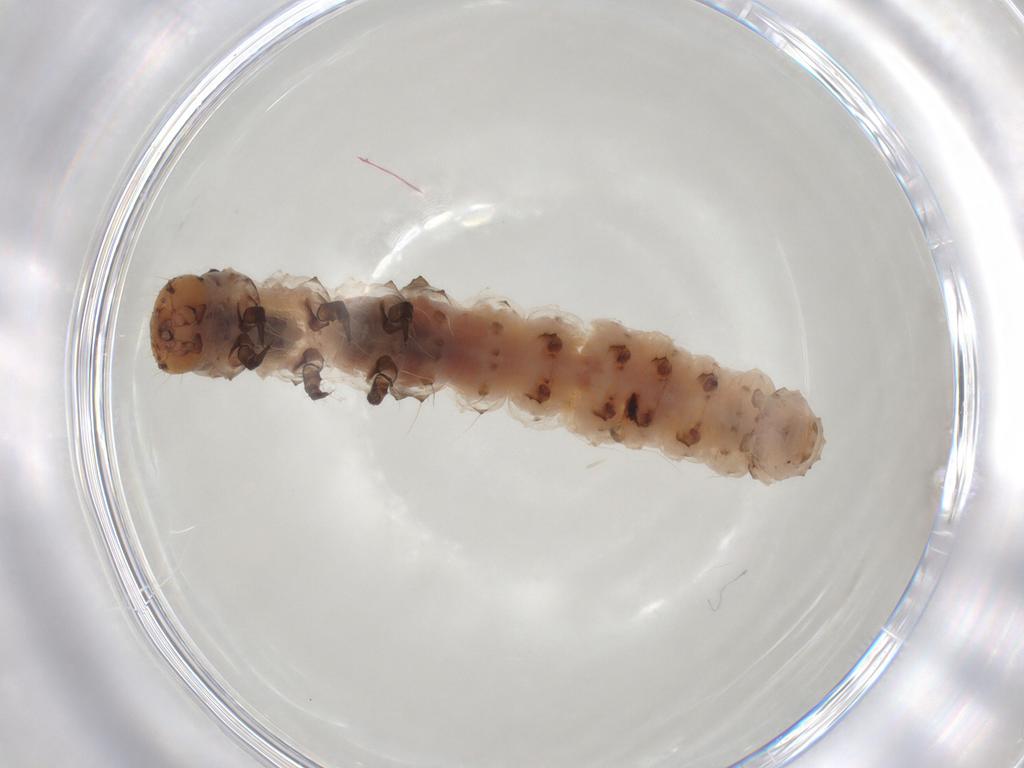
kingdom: Animalia
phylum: Arthropoda
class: Insecta
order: Lepidoptera
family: Pyralidae
